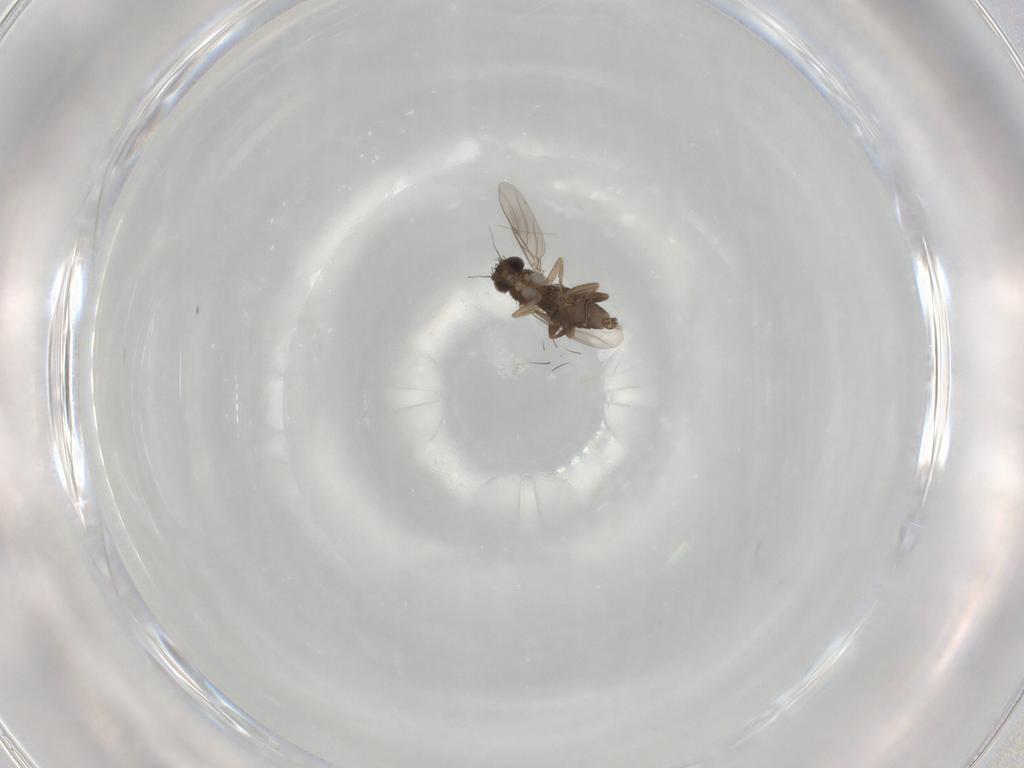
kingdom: Animalia
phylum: Arthropoda
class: Insecta
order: Diptera
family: Phoridae
